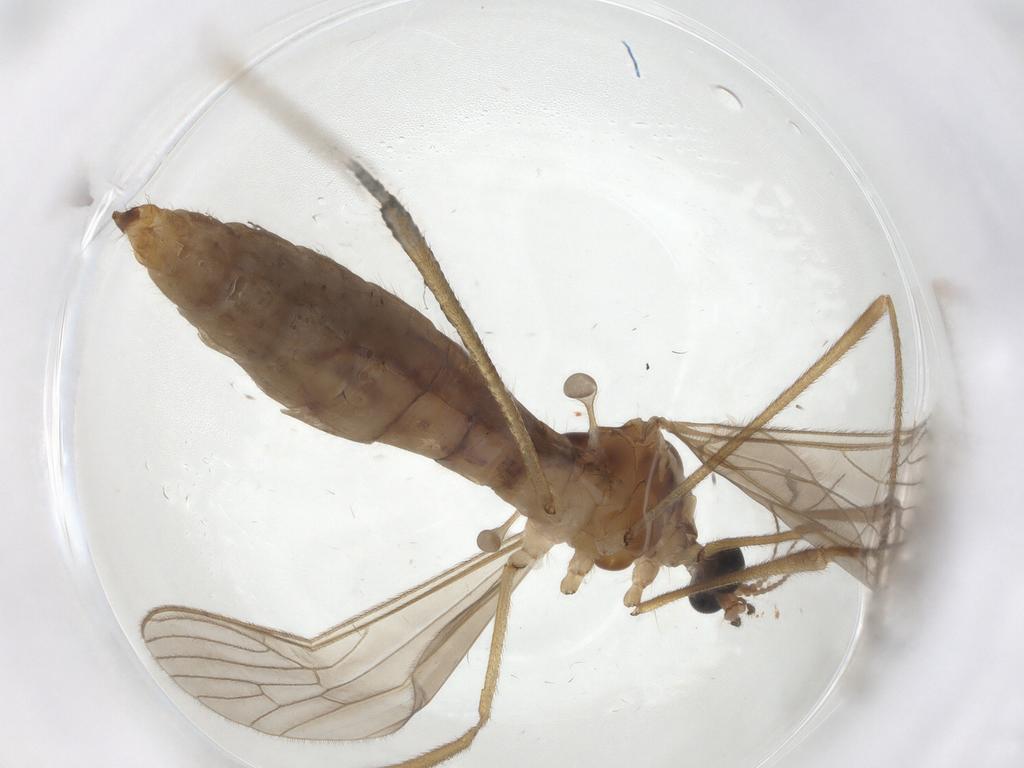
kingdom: Animalia
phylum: Arthropoda
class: Insecta
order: Diptera
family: Limoniidae
